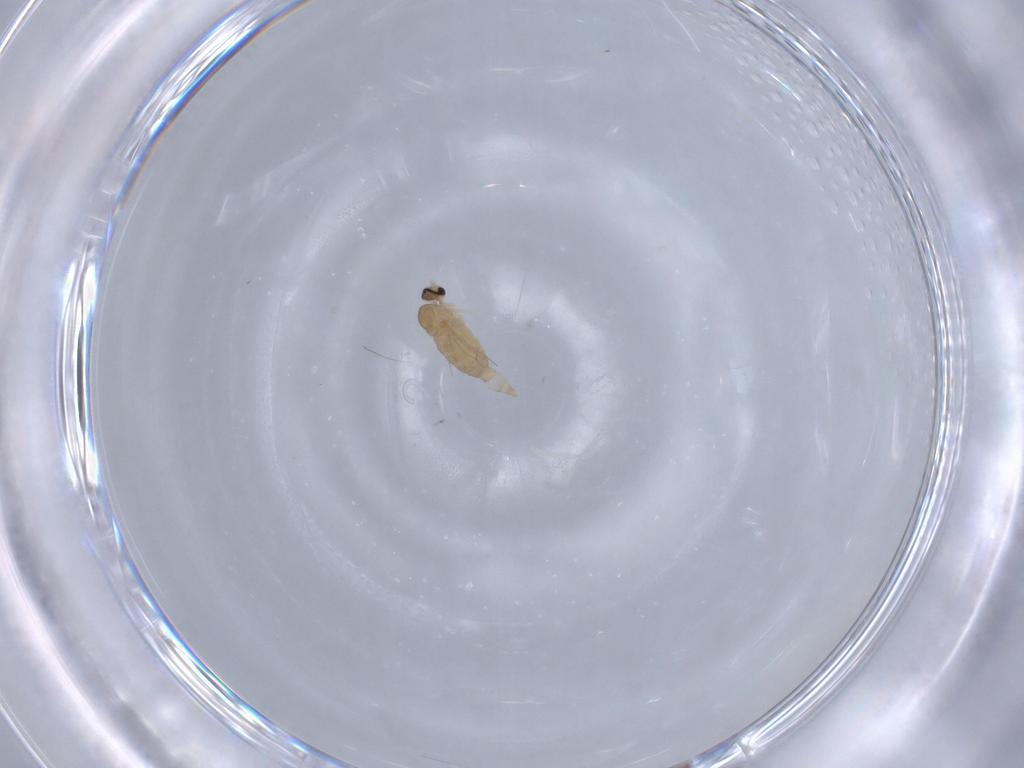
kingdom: Animalia
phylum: Arthropoda
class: Insecta
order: Diptera
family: Cecidomyiidae
